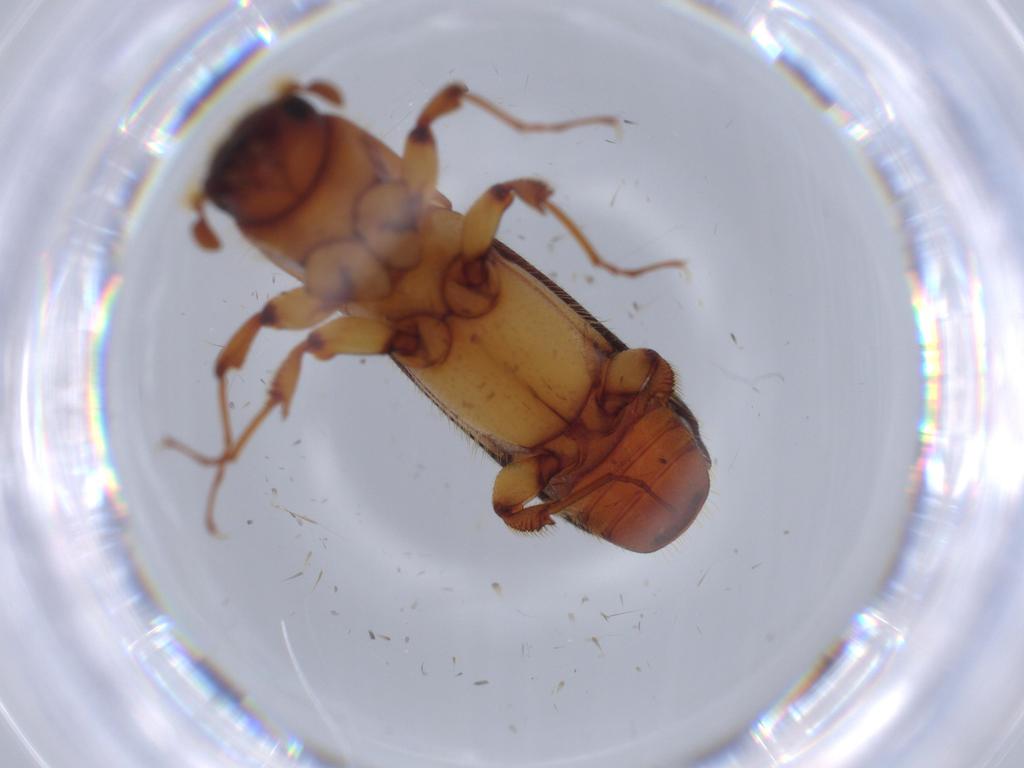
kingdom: Animalia
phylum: Arthropoda
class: Insecta
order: Coleoptera
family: Curculionidae
